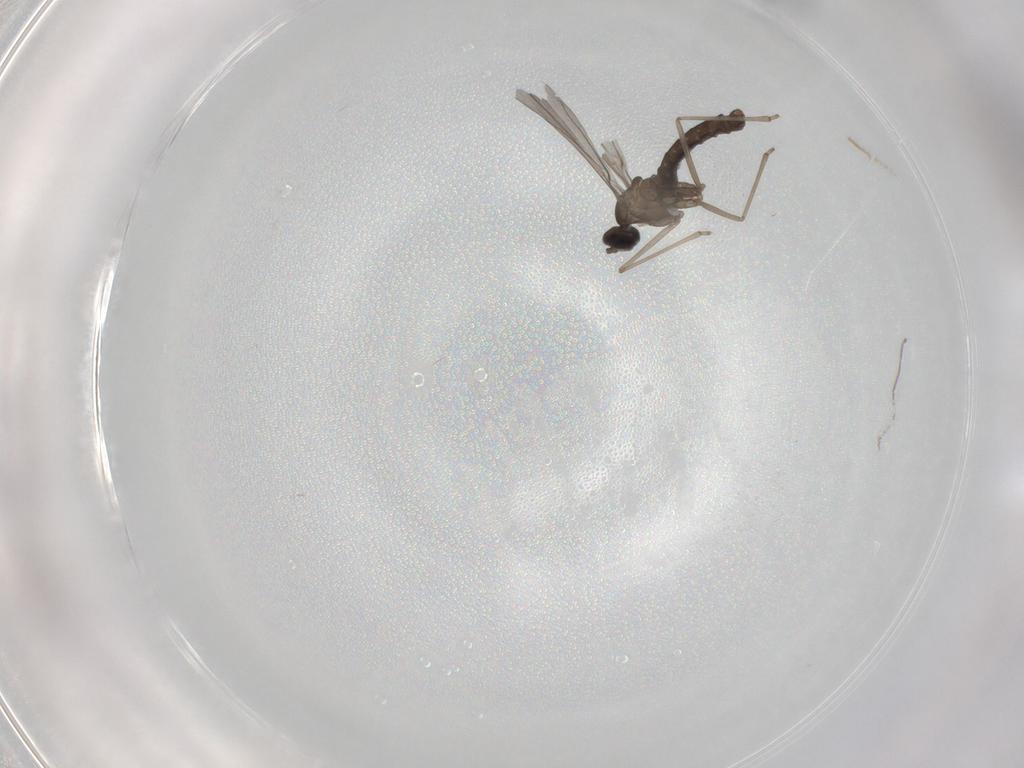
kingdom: Animalia
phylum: Arthropoda
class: Insecta
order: Diptera
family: Cecidomyiidae
